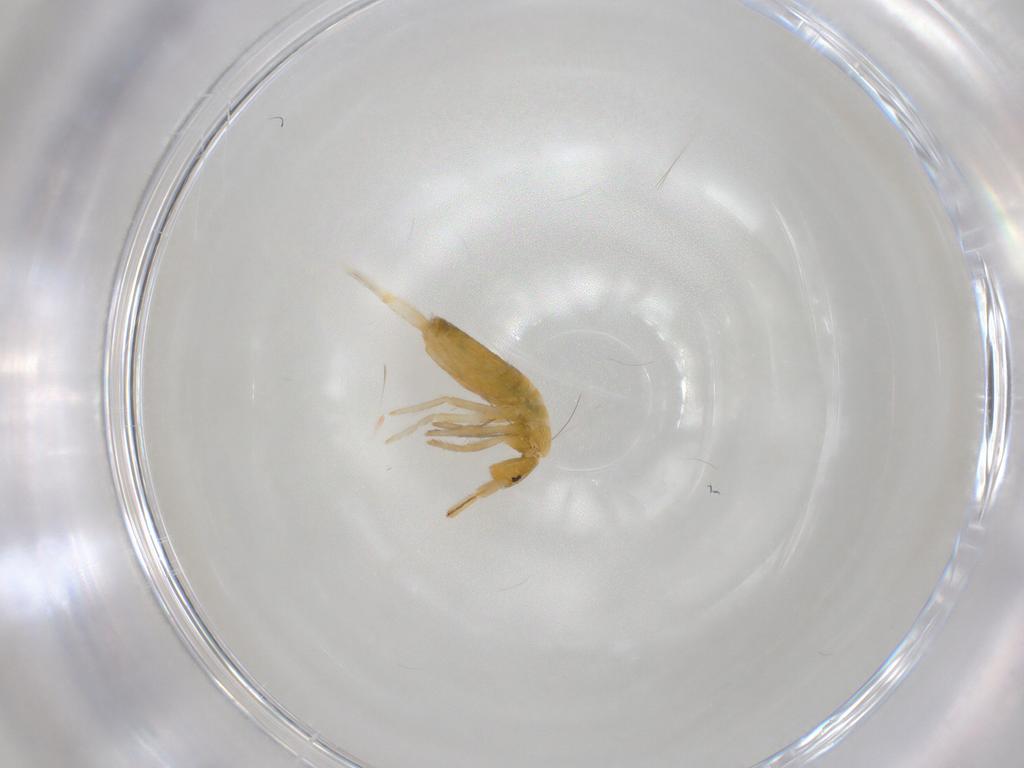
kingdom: Animalia
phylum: Arthropoda
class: Collembola
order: Entomobryomorpha
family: Entomobryidae
